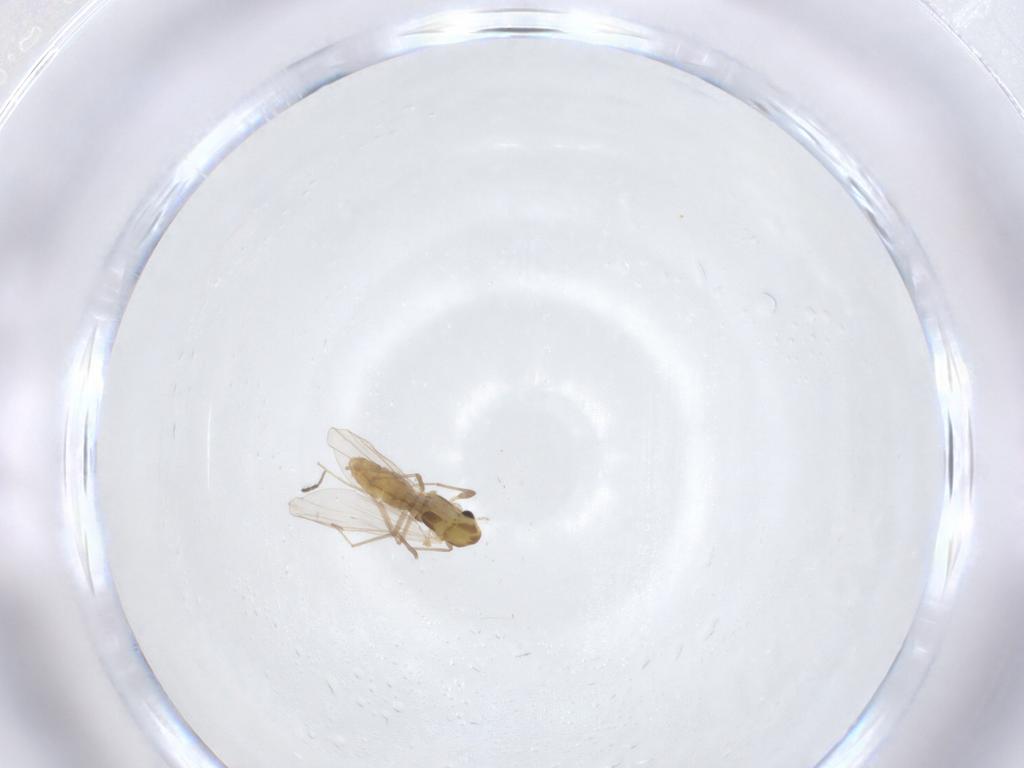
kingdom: Animalia
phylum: Arthropoda
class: Insecta
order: Diptera
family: Chironomidae
